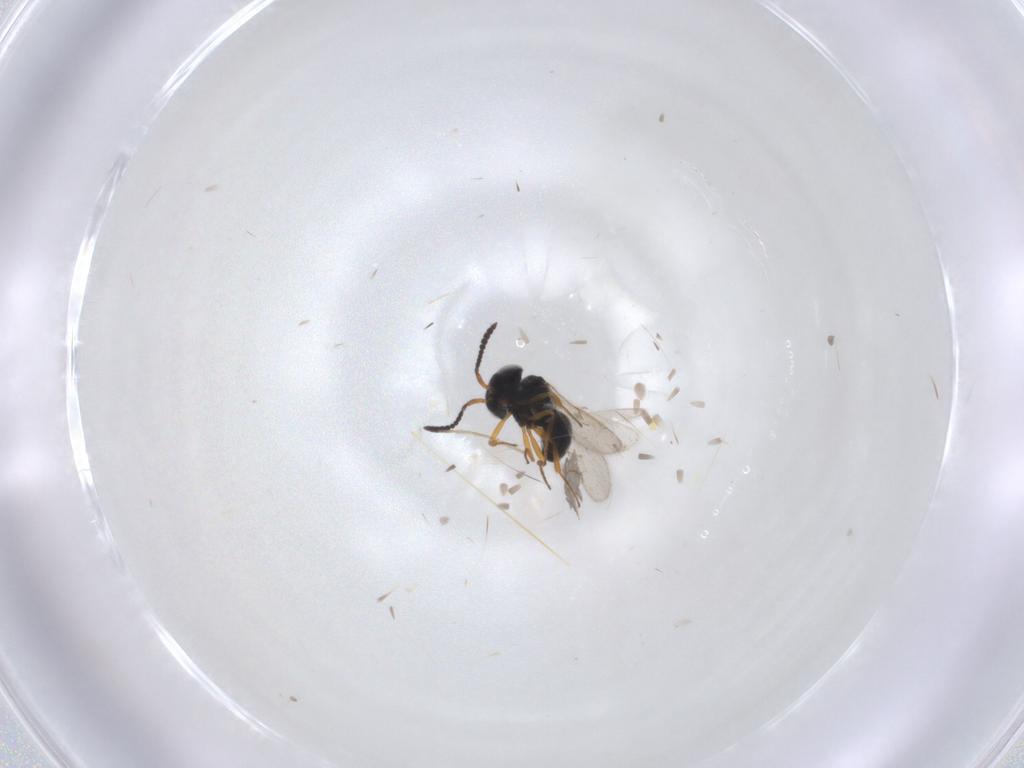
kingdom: Animalia
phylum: Arthropoda
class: Insecta
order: Hymenoptera
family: Scelionidae
